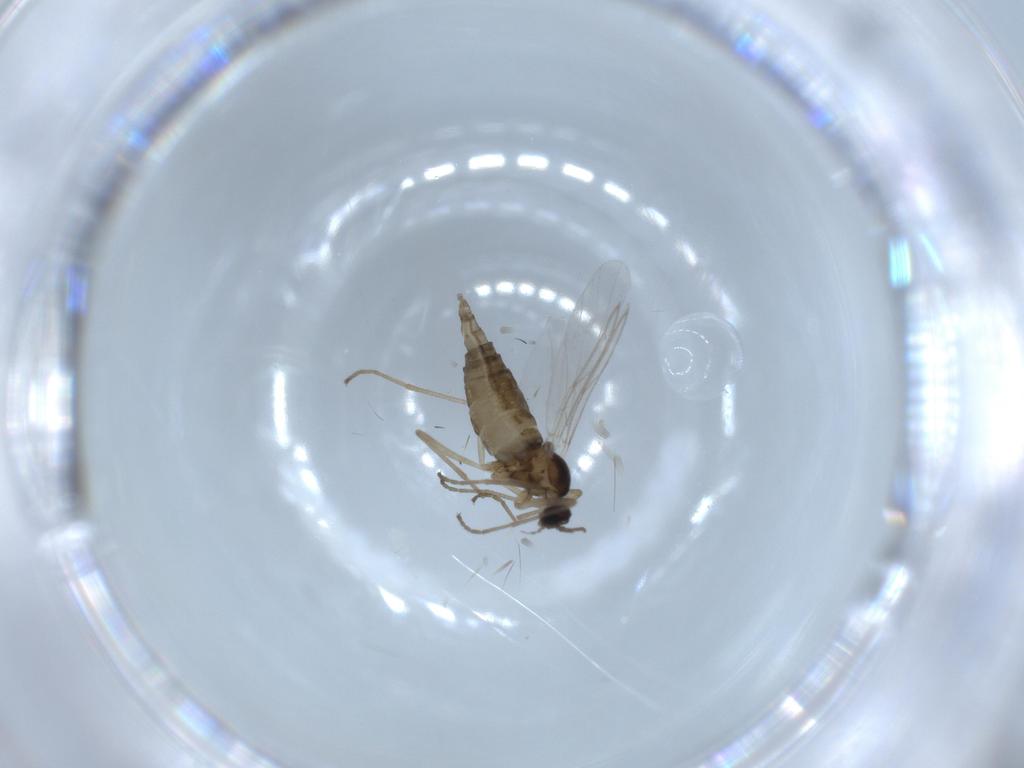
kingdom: Animalia
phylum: Arthropoda
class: Insecta
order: Diptera
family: Cecidomyiidae
